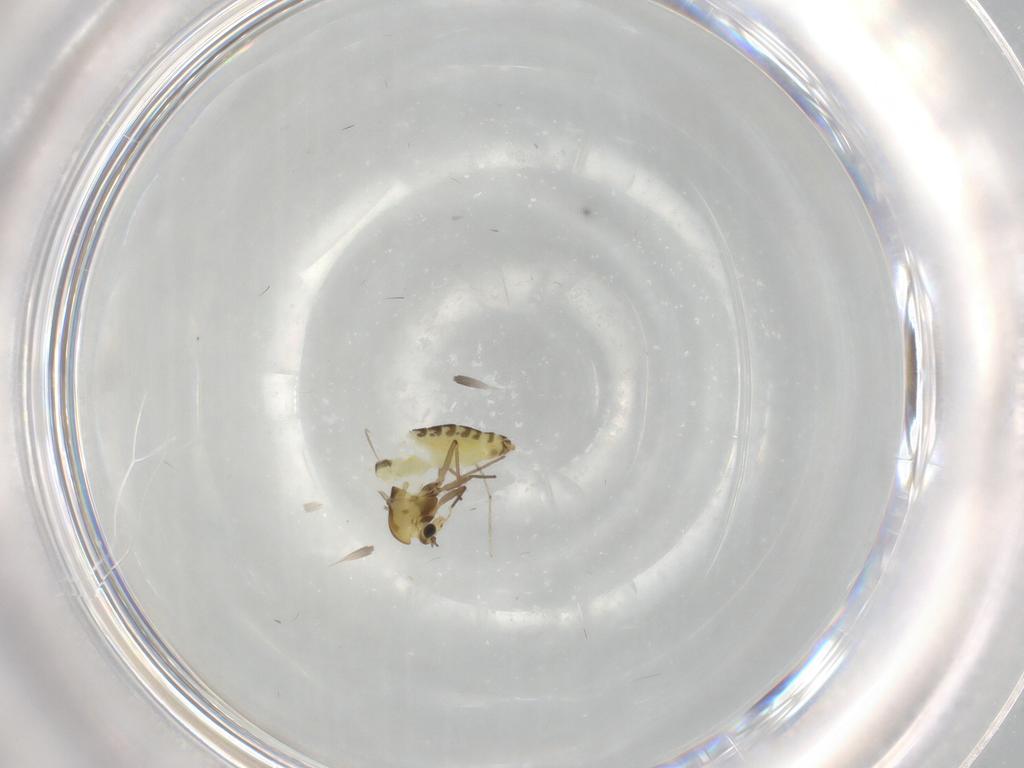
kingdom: Animalia
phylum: Arthropoda
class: Insecta
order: Diptera
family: Chironomidae
